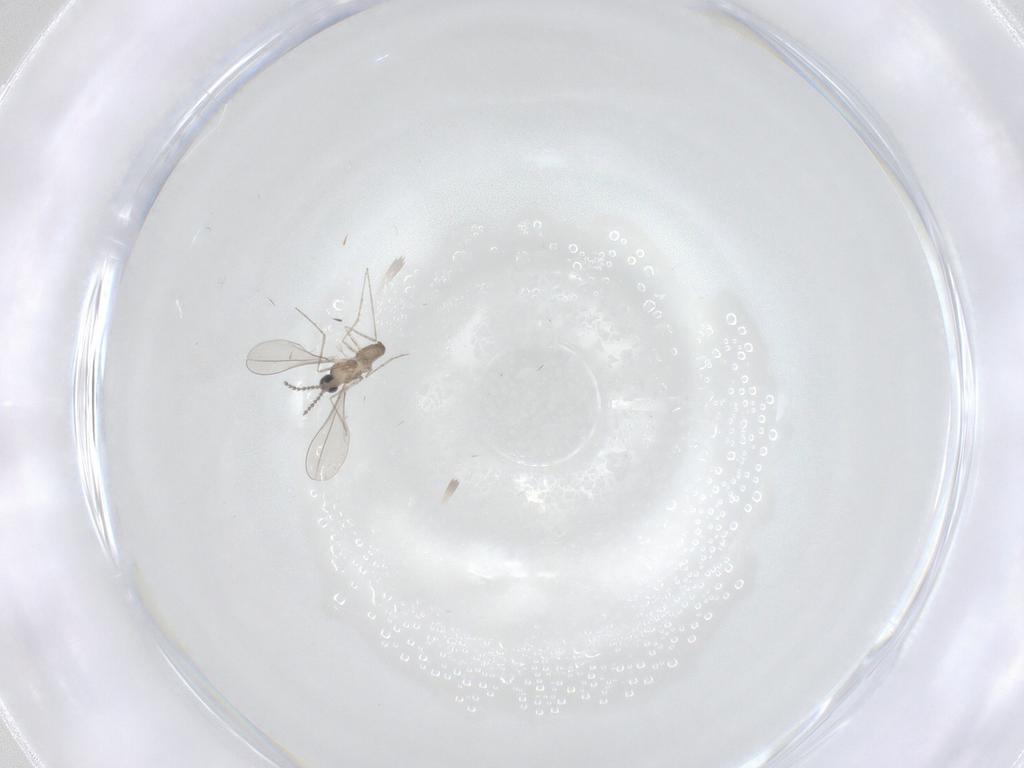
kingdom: Animalia
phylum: Arthropoda
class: Insecta
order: Diptera
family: Cecidomyiidae
